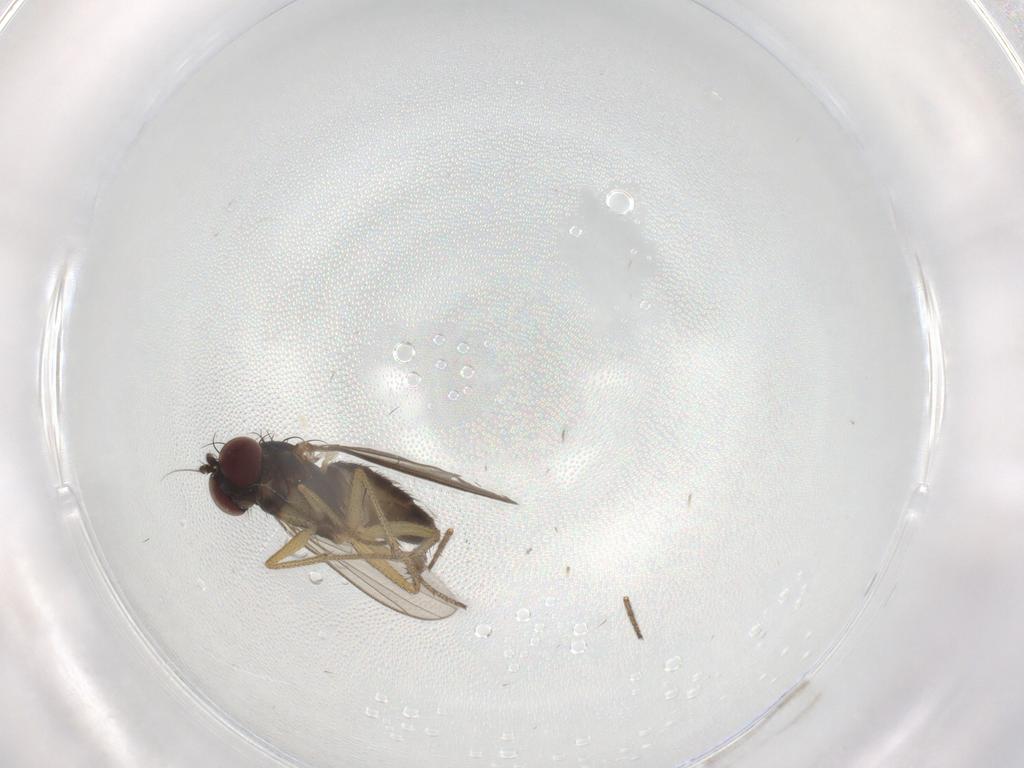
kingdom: Animalia
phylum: Arthropoda
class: Insecta
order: Diptera
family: Dolichopodidae
